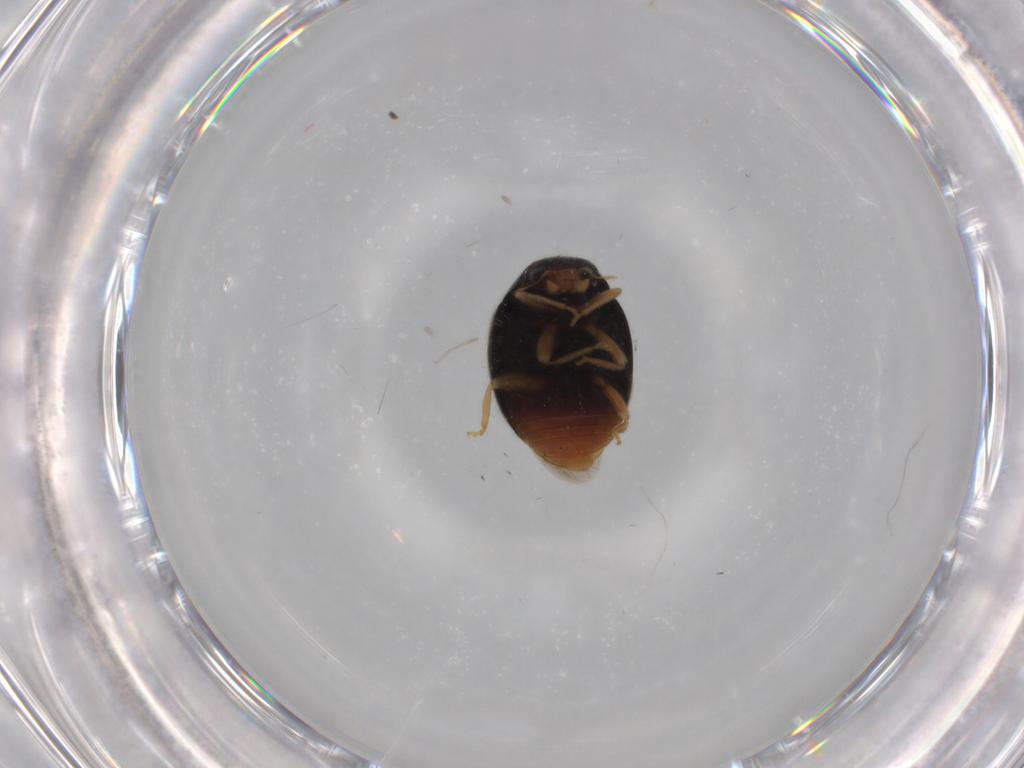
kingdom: Animalia
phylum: Arthropoda
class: Insecta
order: Coleoptera
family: Coccinellidae
